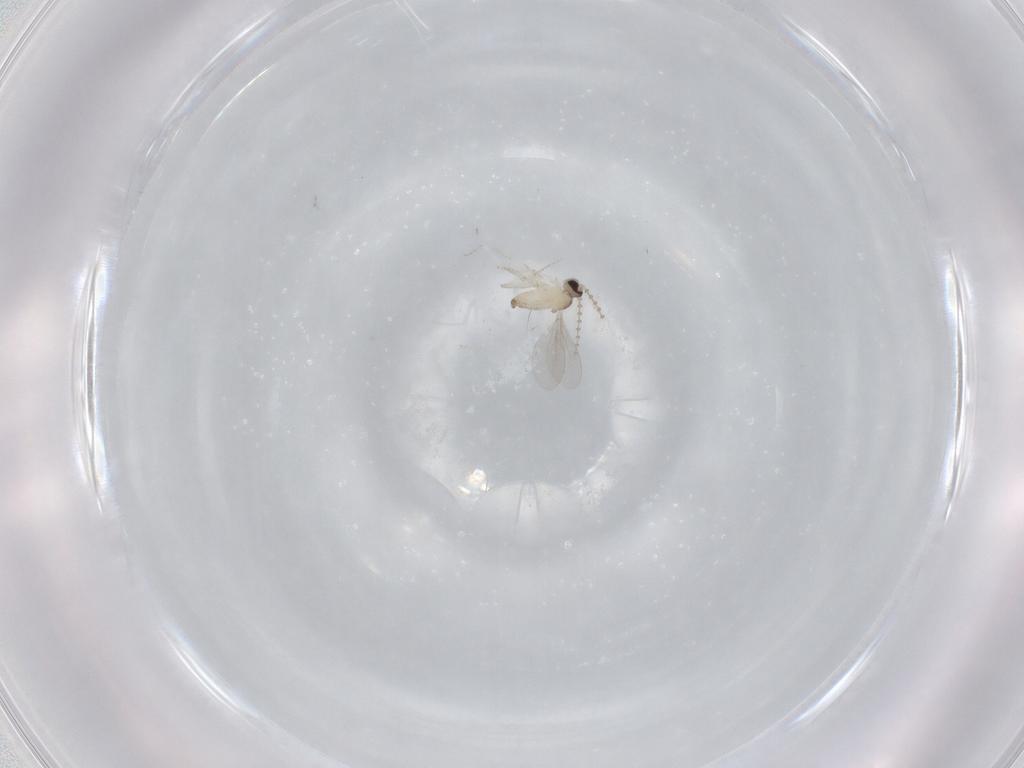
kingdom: Animalia
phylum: Arthropoda
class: Insecta
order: Diptera
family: Cecidomyiidae
